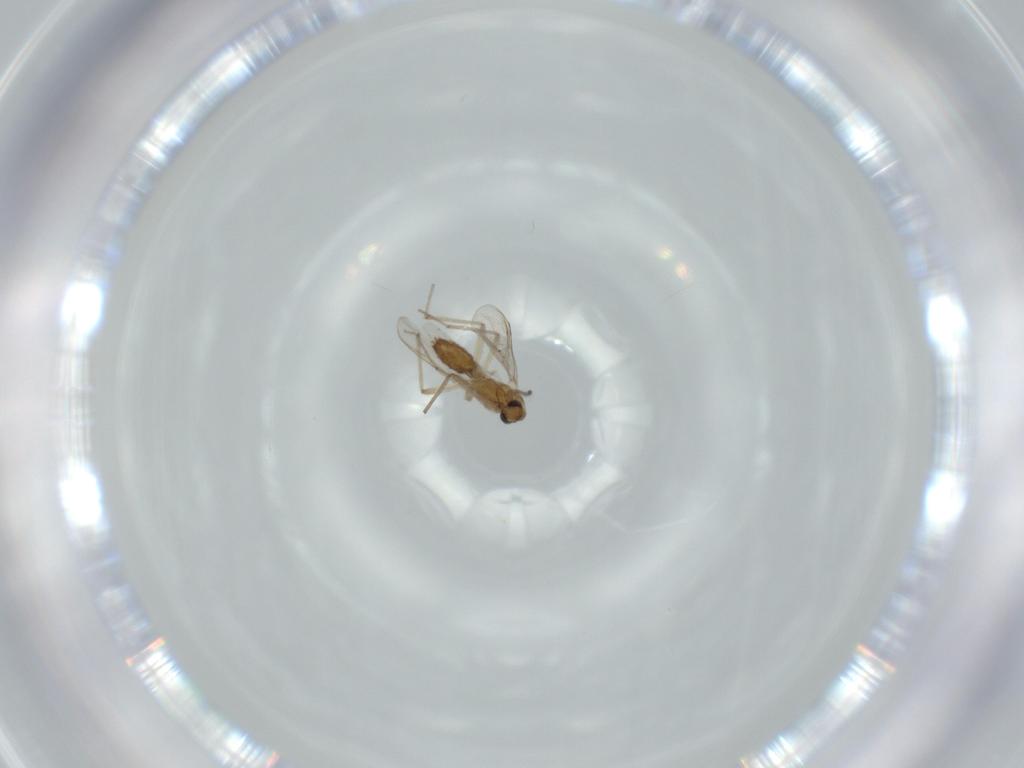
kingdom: Animalia
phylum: Arthropoda
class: Insecta
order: Diptera
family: Chironomidae
